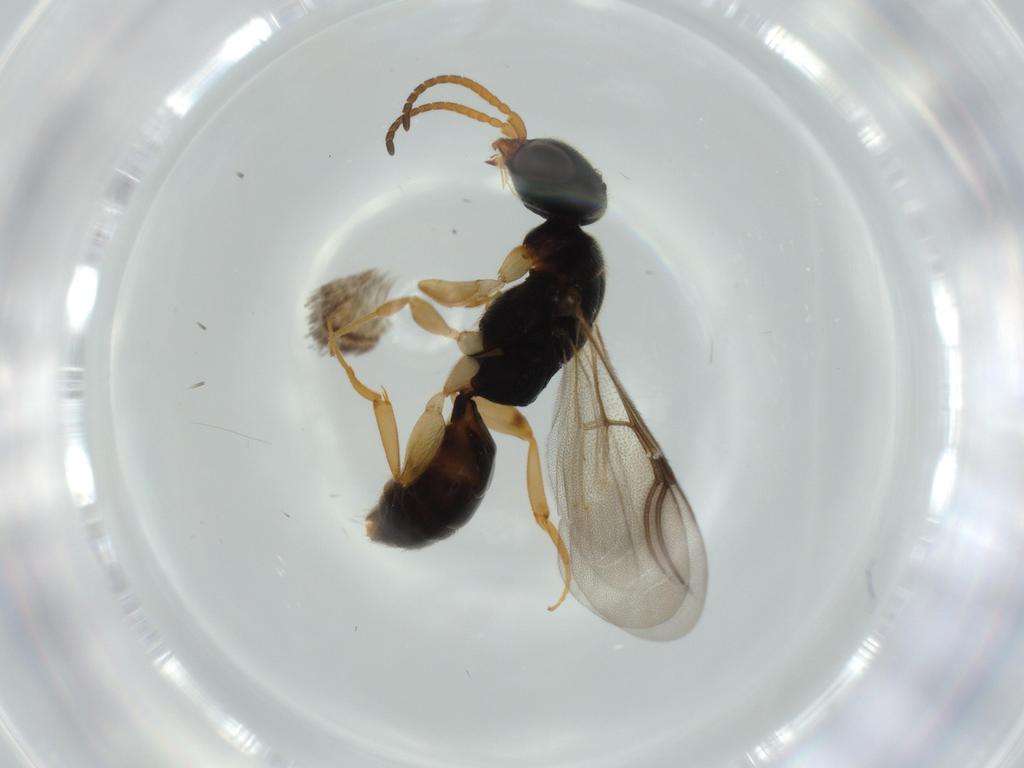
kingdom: Animalia
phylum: Arthropoda
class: Insecta
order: Hymenoptera
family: Bethylidae
